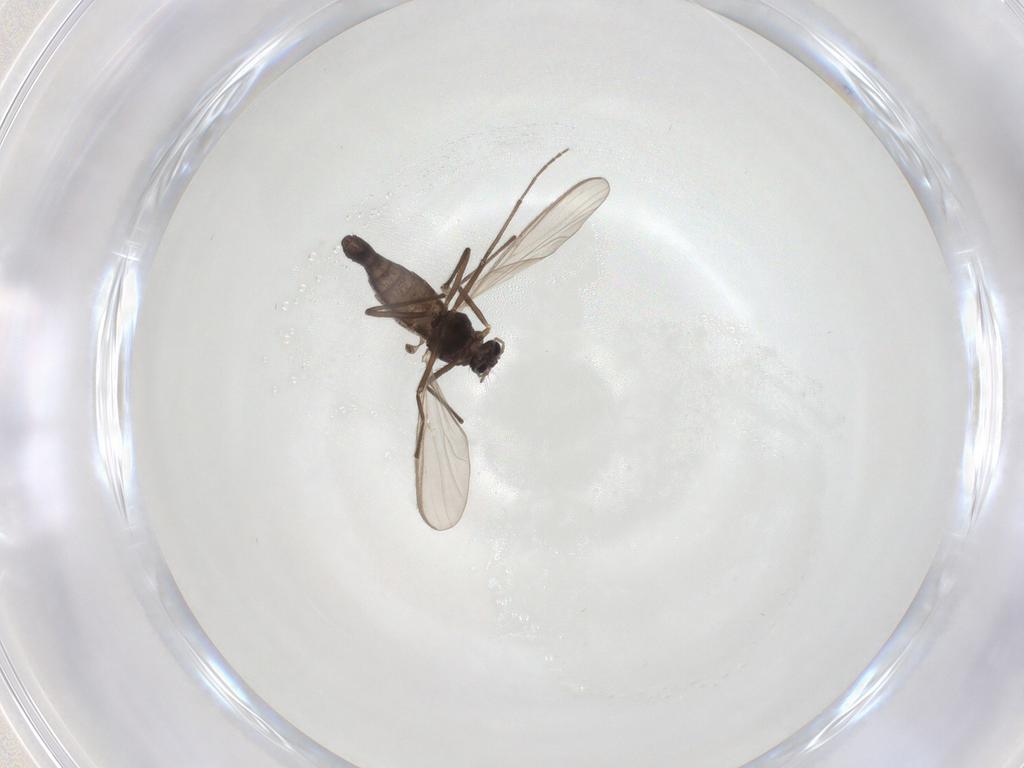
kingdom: Animalia
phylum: Arthropoda
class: Insecta
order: Diptera
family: Chironomidae
